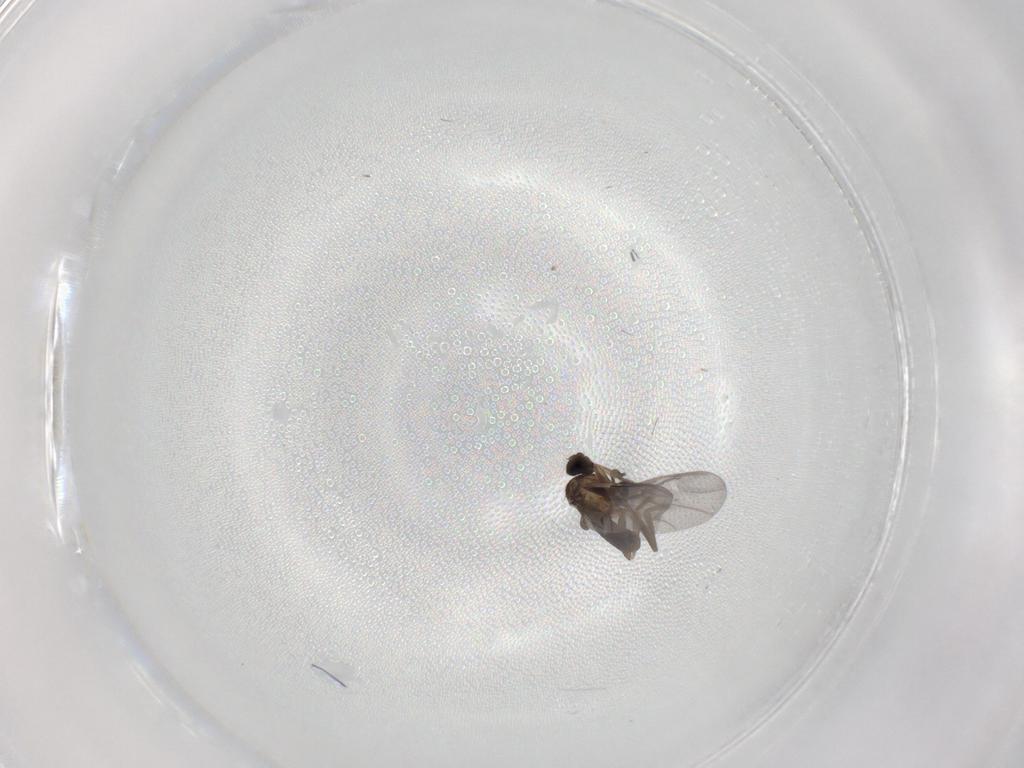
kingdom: Animalia
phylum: Arthropoda
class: Insecta
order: Diptera
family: Phoridae
